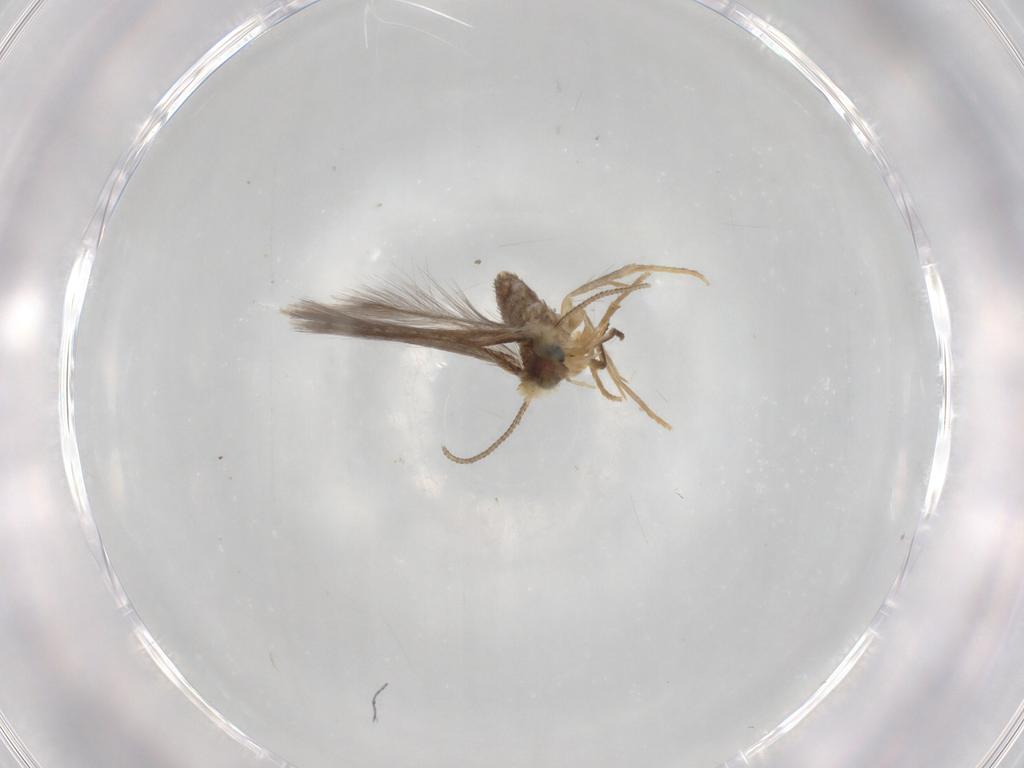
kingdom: Animalia
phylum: Arthropoda
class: Insecta
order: Lepidoptera
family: Nepticulidae
